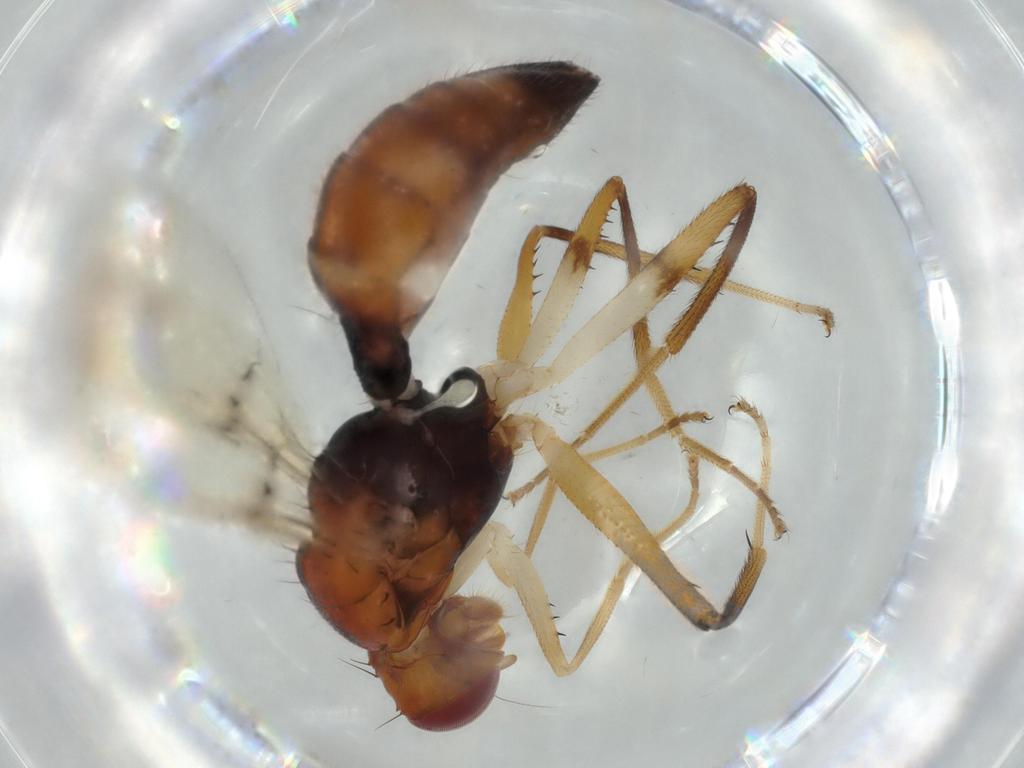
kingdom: Animalia
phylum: Arthropoda
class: Insecta
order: Diptera
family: Richardiidae
